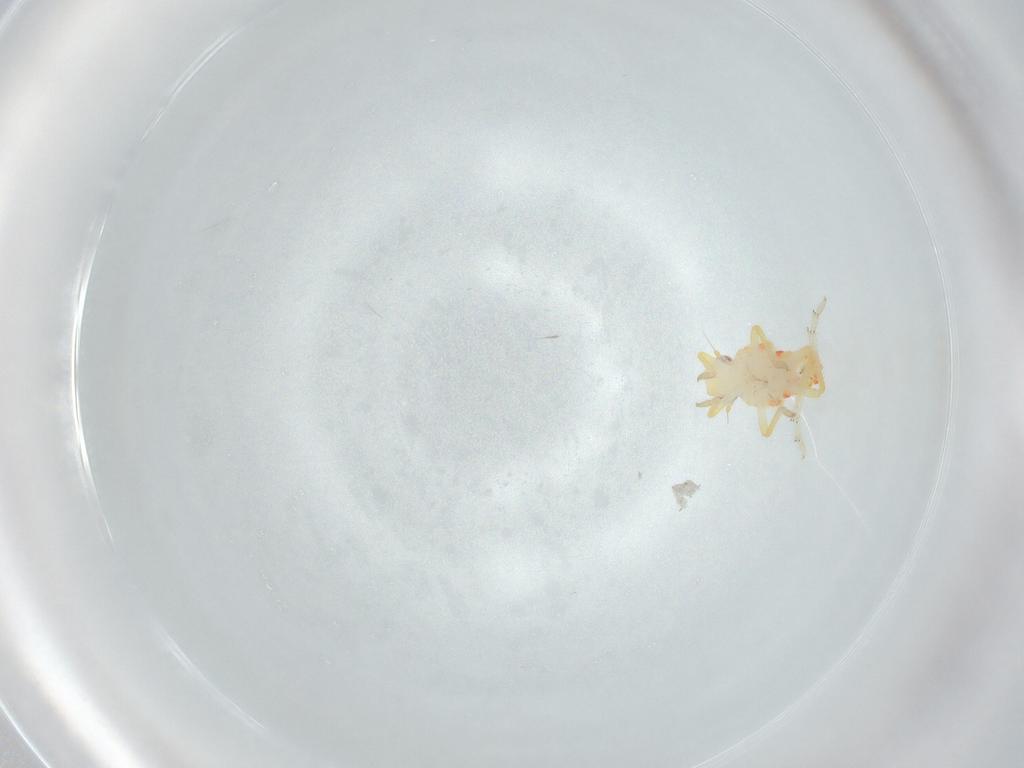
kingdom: Animalia
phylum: Arthropoda
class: Insecta
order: Hemiptera
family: Tropiduchidae
